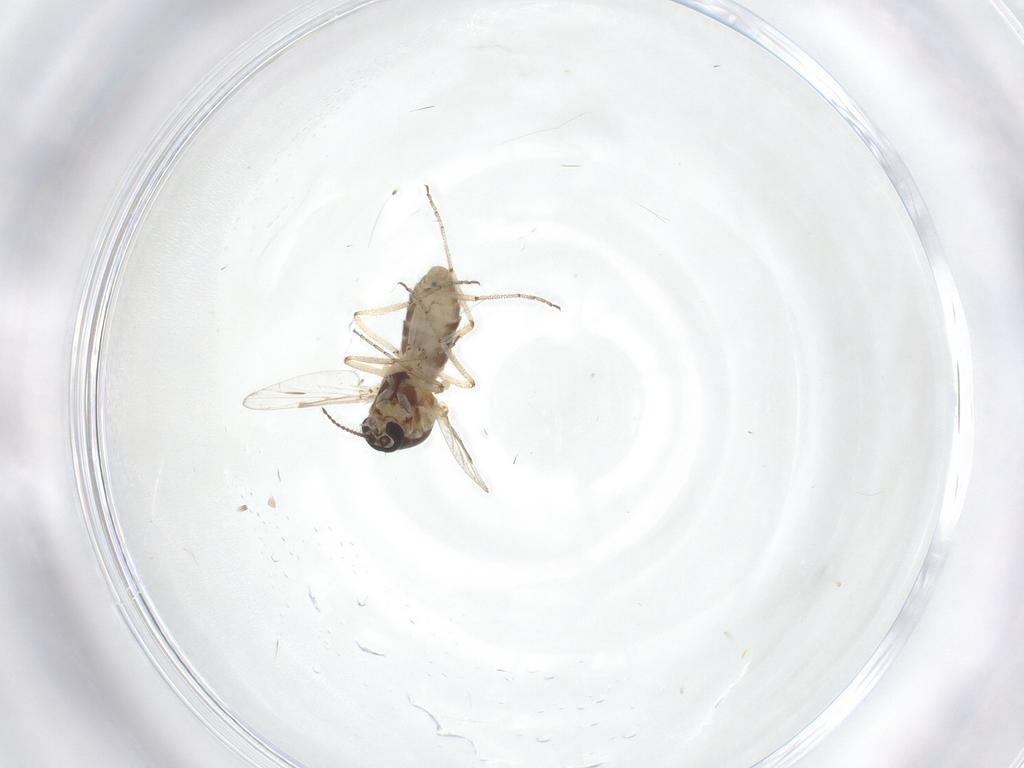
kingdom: Animalia
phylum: Arthropoda
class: Insecta
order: Diptera
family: Ceratopogonidae
